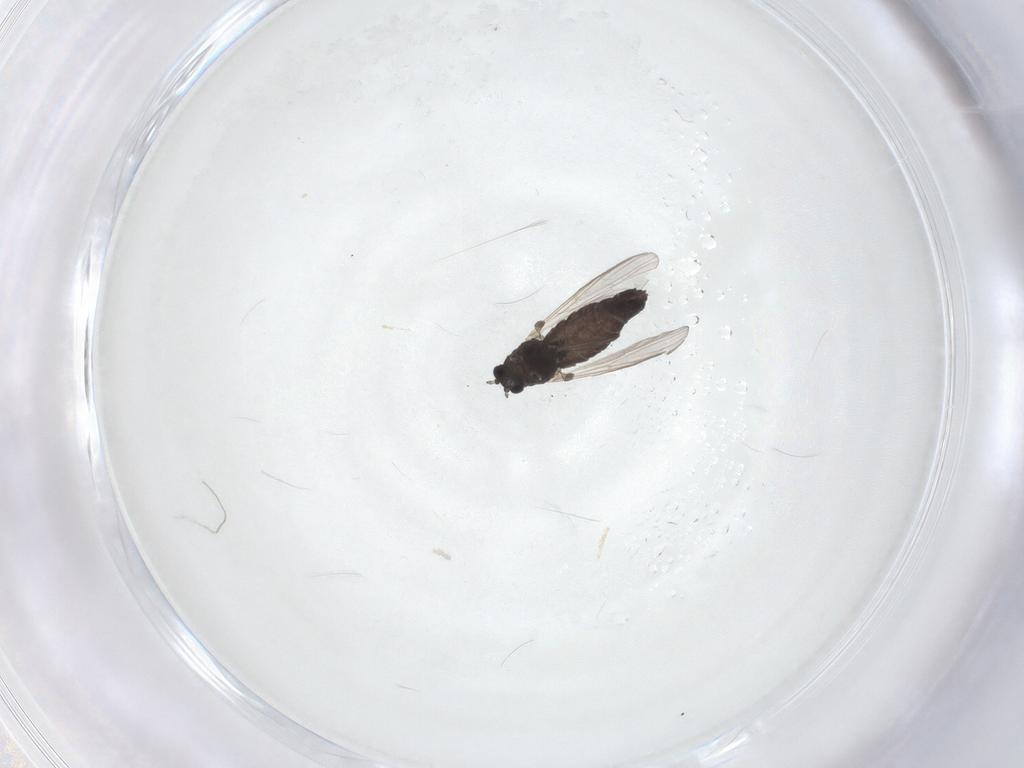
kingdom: Animalia
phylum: Arthropoda
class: Insecta
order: Diptera
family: Chironomidae
